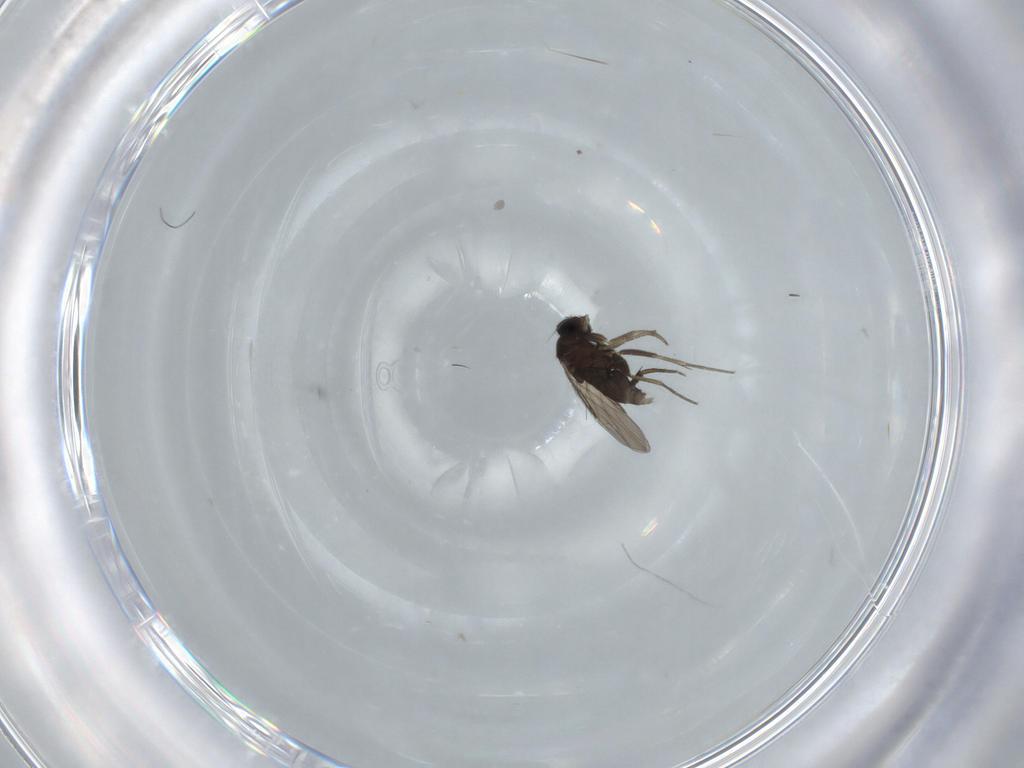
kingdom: Animalia
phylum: Arthropoda
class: Insecta
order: Diptera
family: Phoridae
